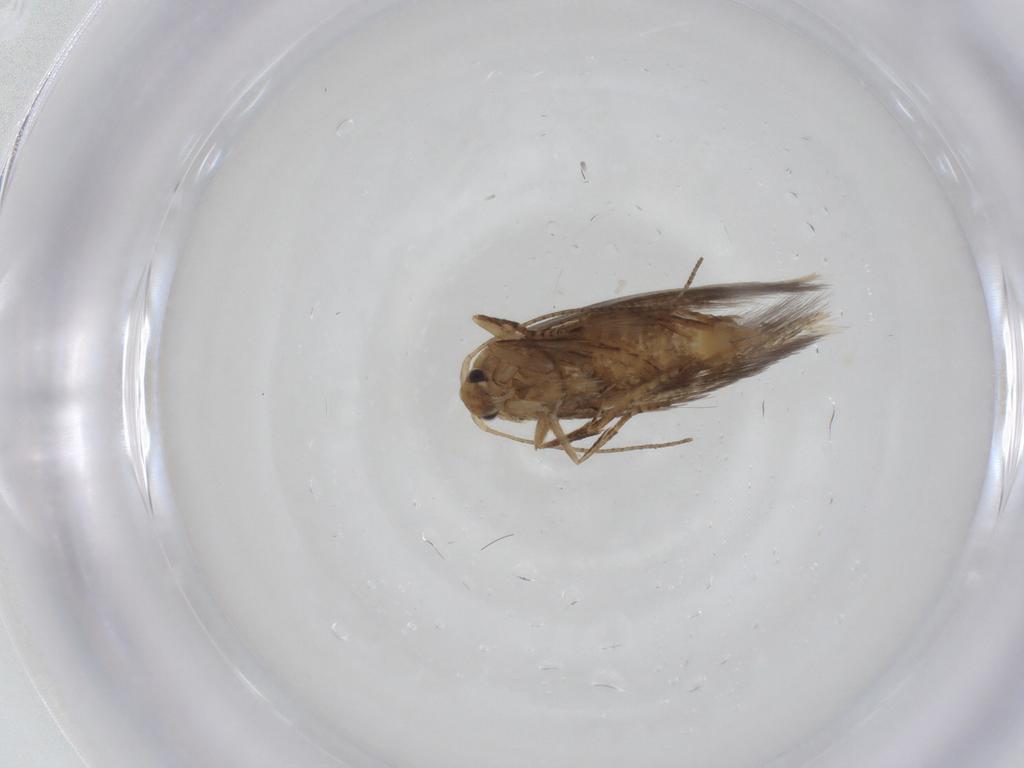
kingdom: Animalia
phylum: Arthropoda
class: Insecta
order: Lepidoptera
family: Bucculatricidae
